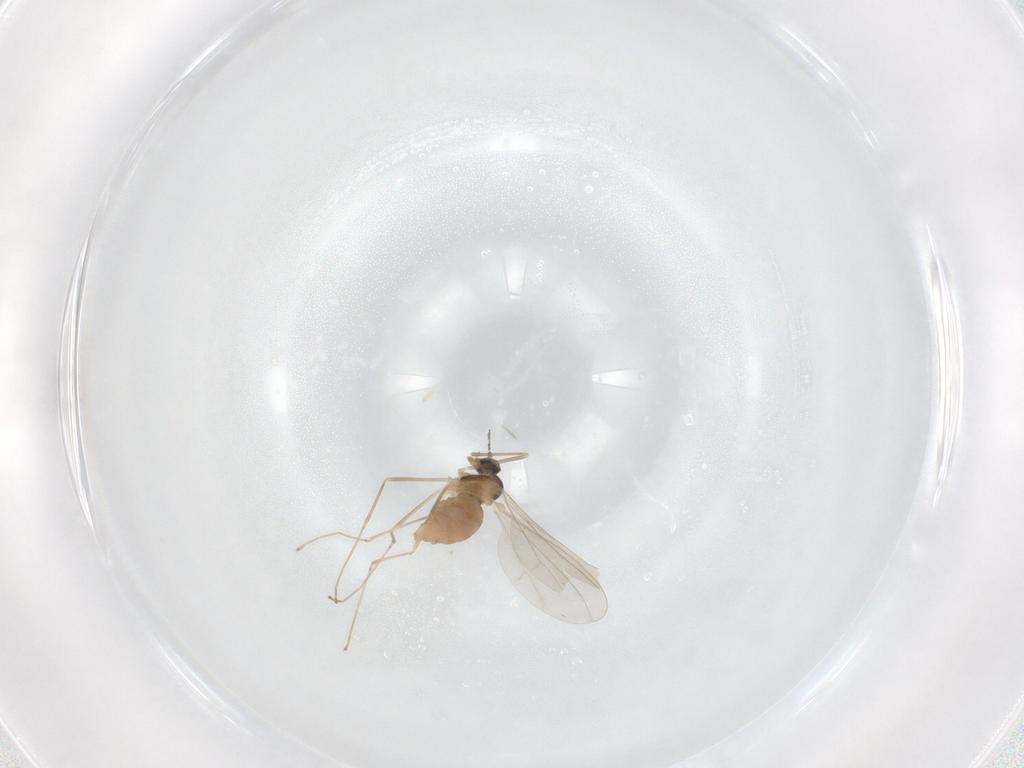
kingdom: Animalia
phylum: Arthropoda
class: Insecta
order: Diptera
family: Cecidomyiidae
